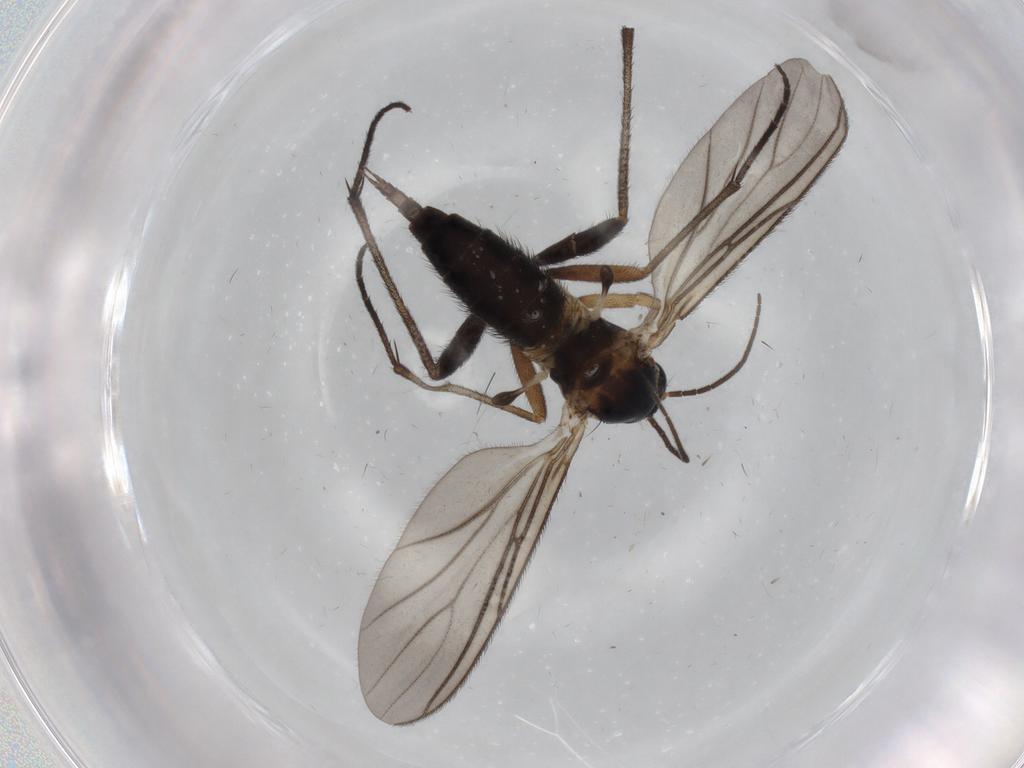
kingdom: Animalia
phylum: Arthropoda
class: Insecta
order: Diptera
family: Sciaridae
